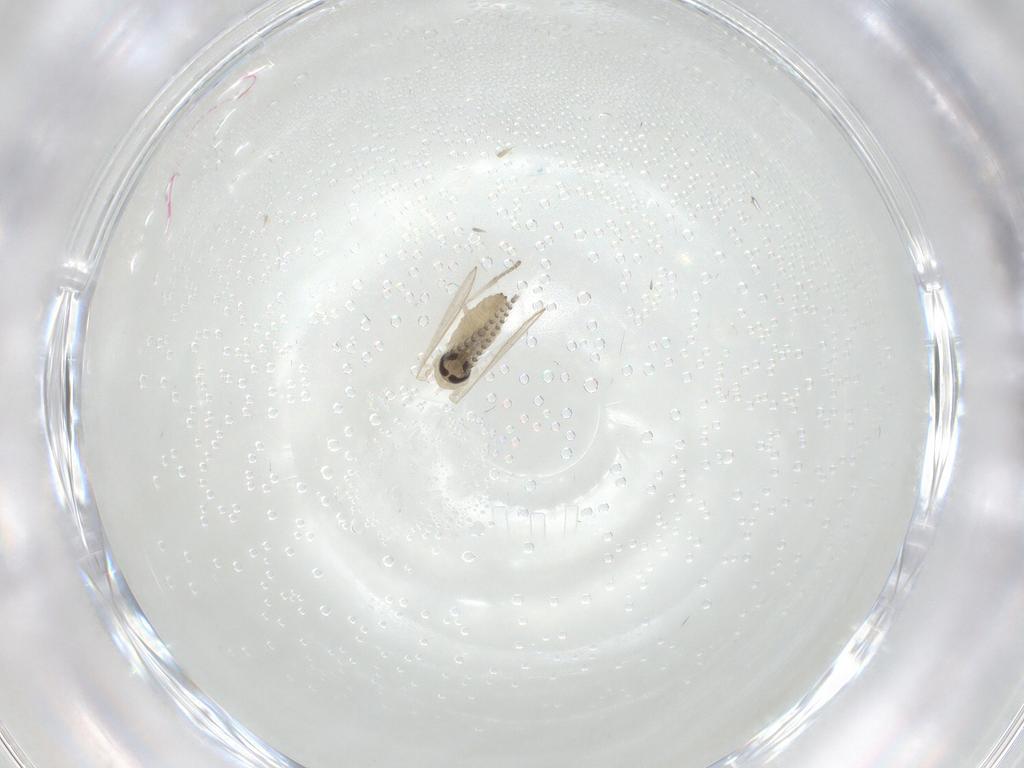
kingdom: Animalia
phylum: Arthropoda
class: Insecta
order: Diptera
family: Psychodidae
